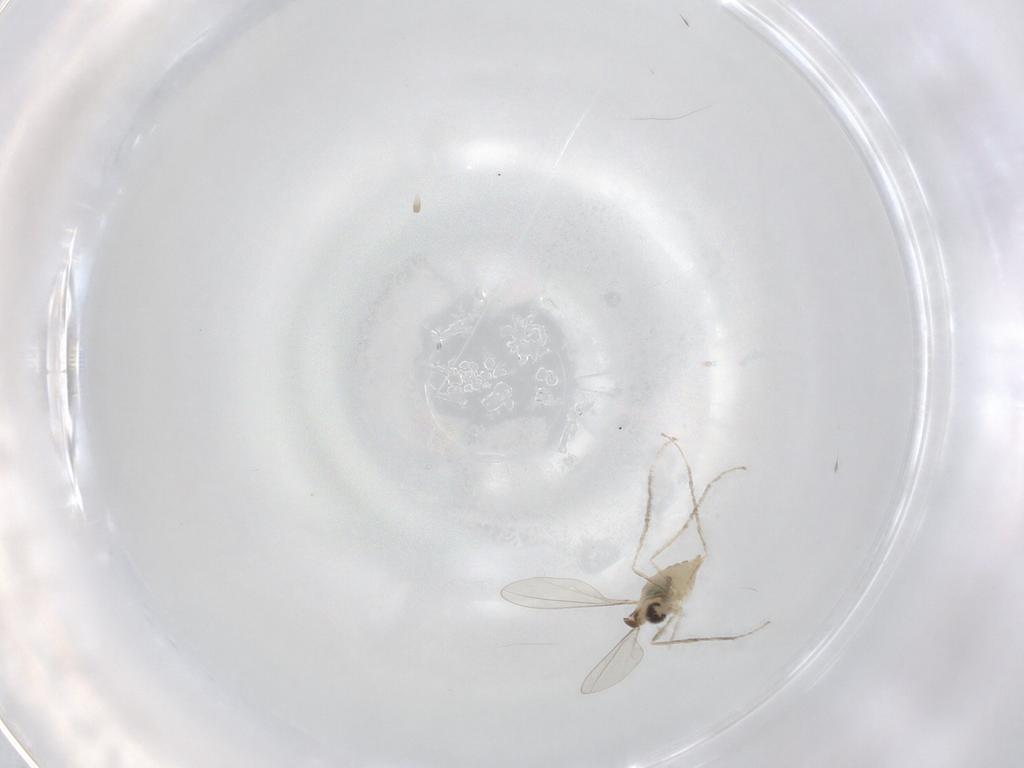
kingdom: Animalia
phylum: Arthropoda
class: Insecta
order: Diptera
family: Cecidomyiidae
